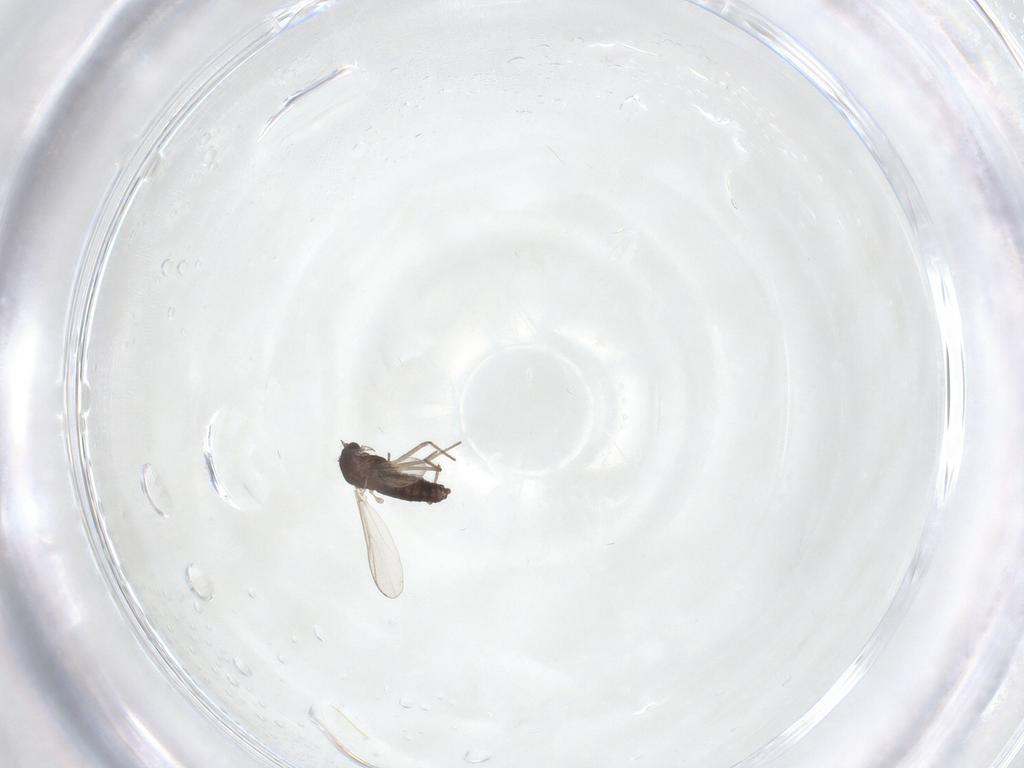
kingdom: Animalia
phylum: Arthropoda
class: Insecta
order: Diptera
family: Chironomidae
